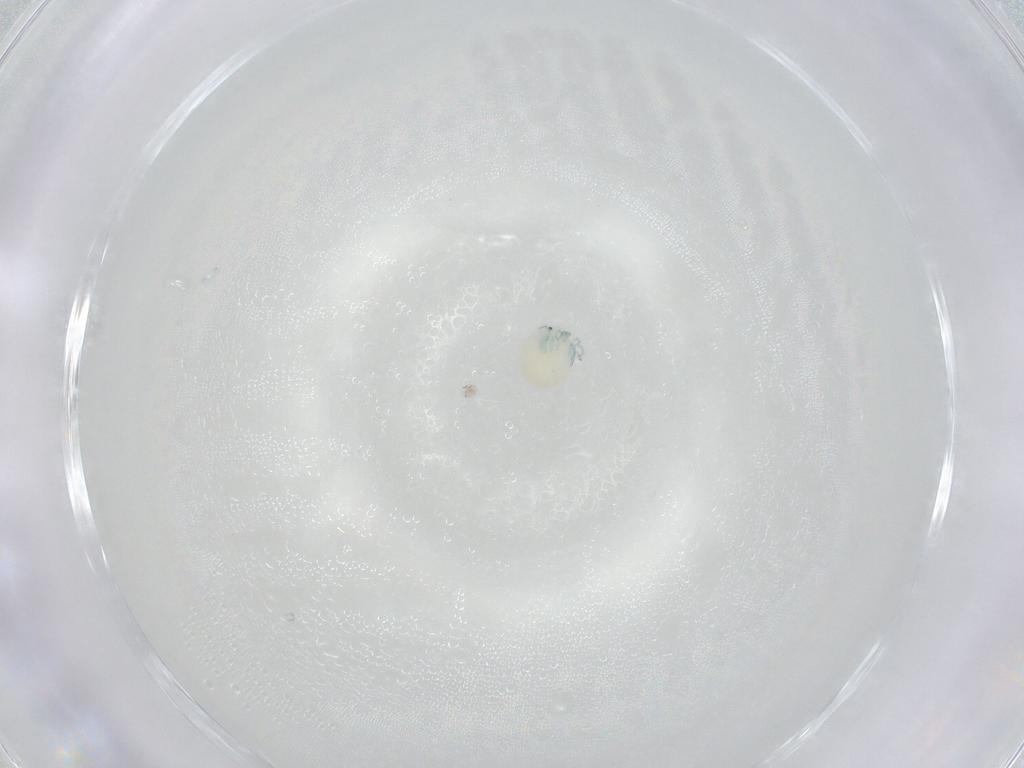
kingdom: Animalia
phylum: Arthropoda
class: Arachnida
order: Trombidiformes
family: Arrenuridae
